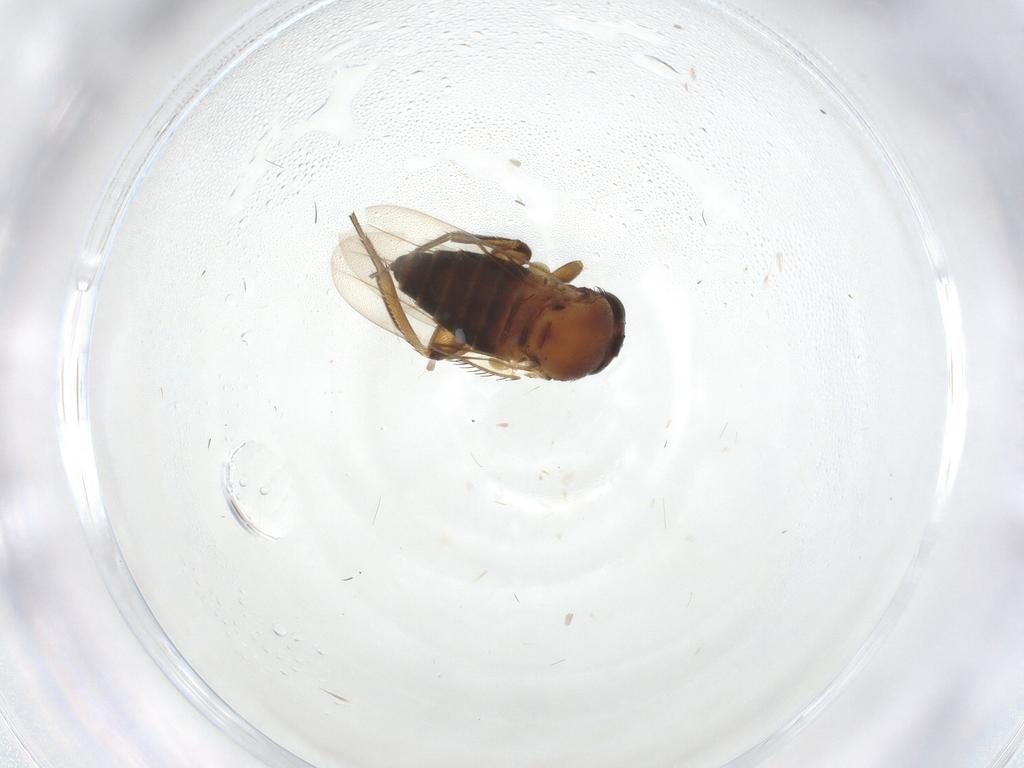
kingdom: Animalia
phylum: Arthropoda
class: Insecta
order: Diptera
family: Phoridae
